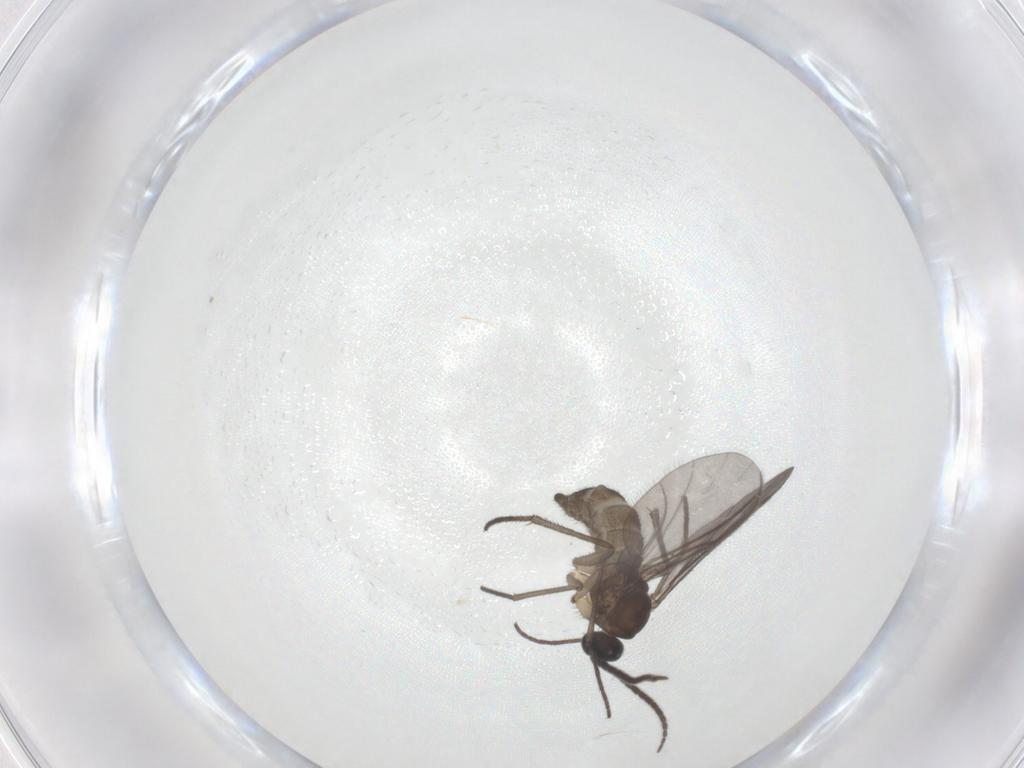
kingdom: Animalia
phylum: Arthropoda
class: Insecta
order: Diptera
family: Sciaridae
